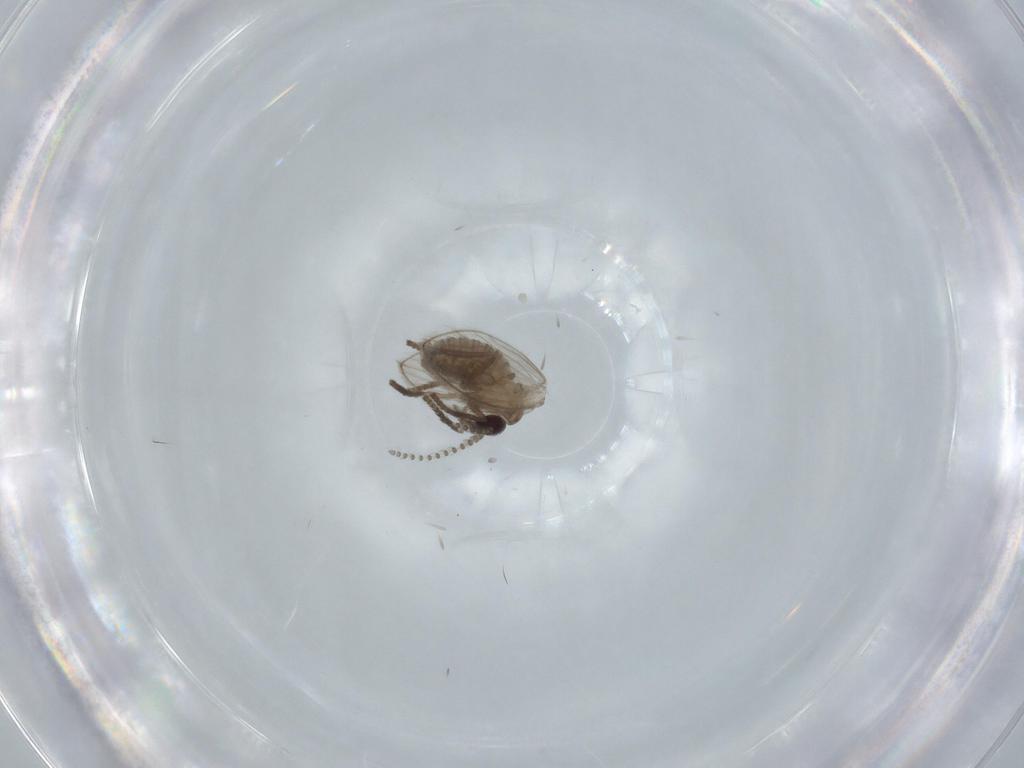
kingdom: Animalia
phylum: Arthropoda
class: Insecta
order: Diptera
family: Psychodidae
